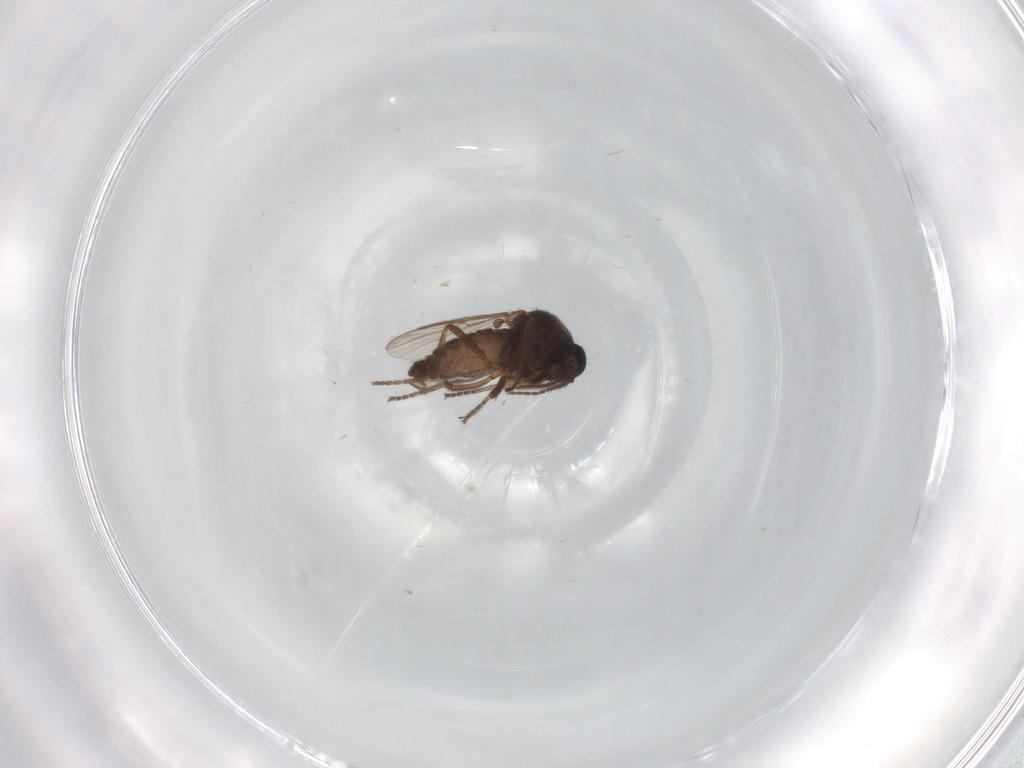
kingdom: Animalia
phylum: Arthropoda
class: Insecta
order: Diptera
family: Ceratopogonidae
